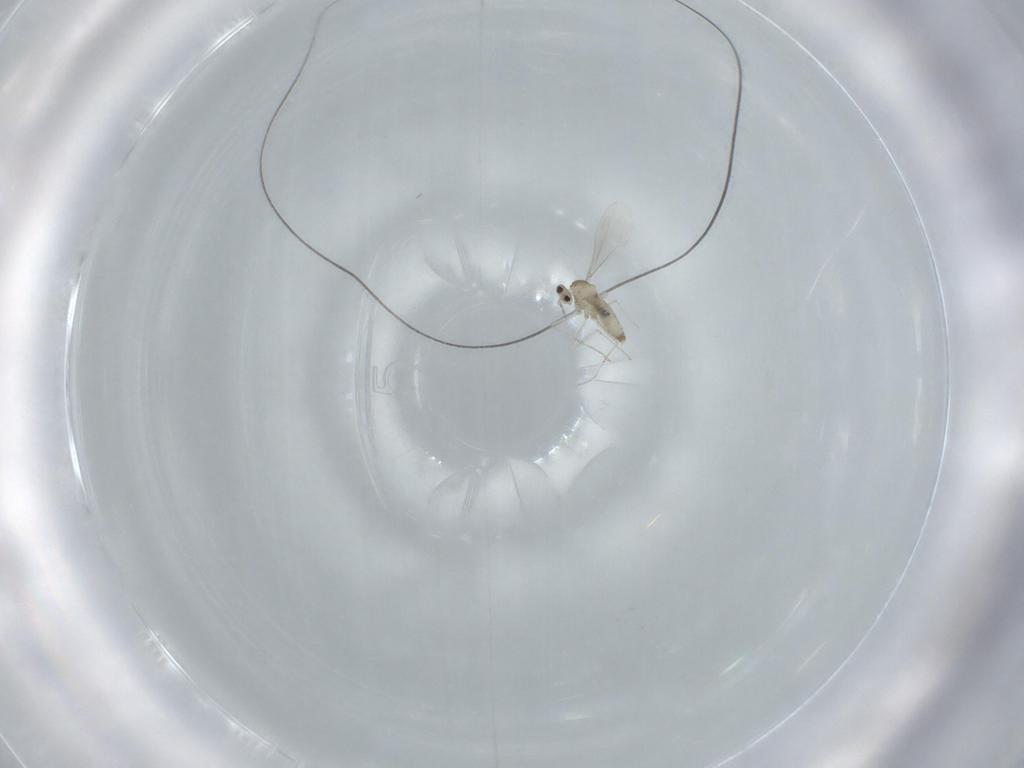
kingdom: Animalia
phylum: Arthropoda
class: Insecta
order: Diptera
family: Cecidomyiidae
